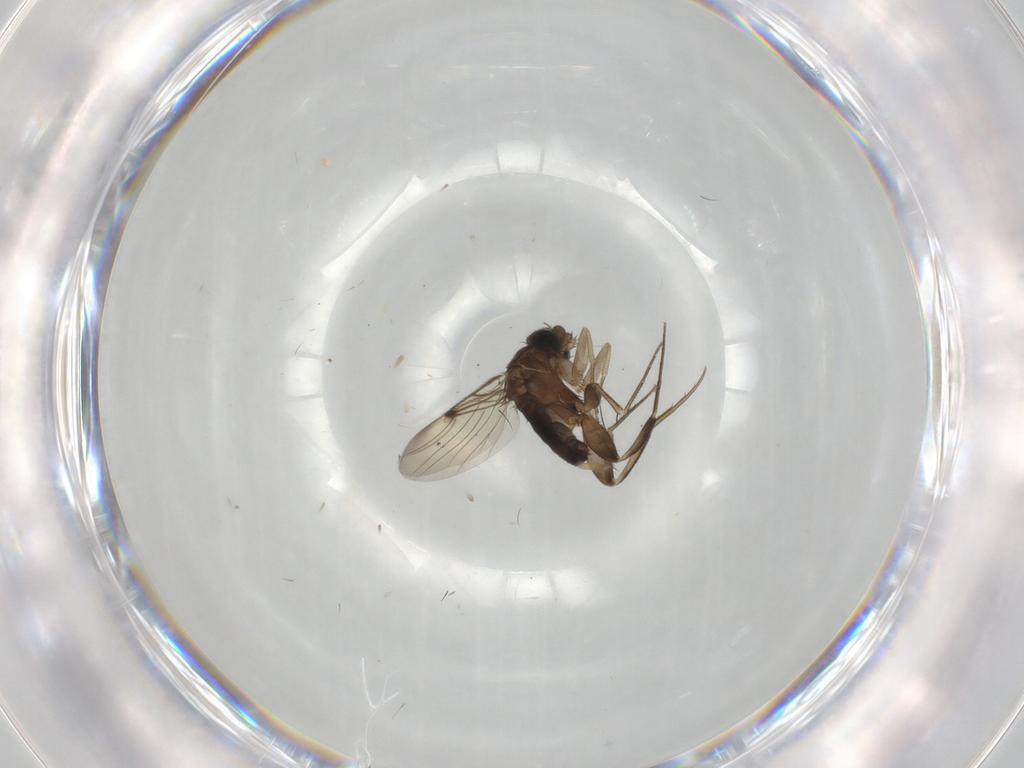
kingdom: Animalia
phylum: Arthropoda
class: Insecta
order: Diptera
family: Phoridae
